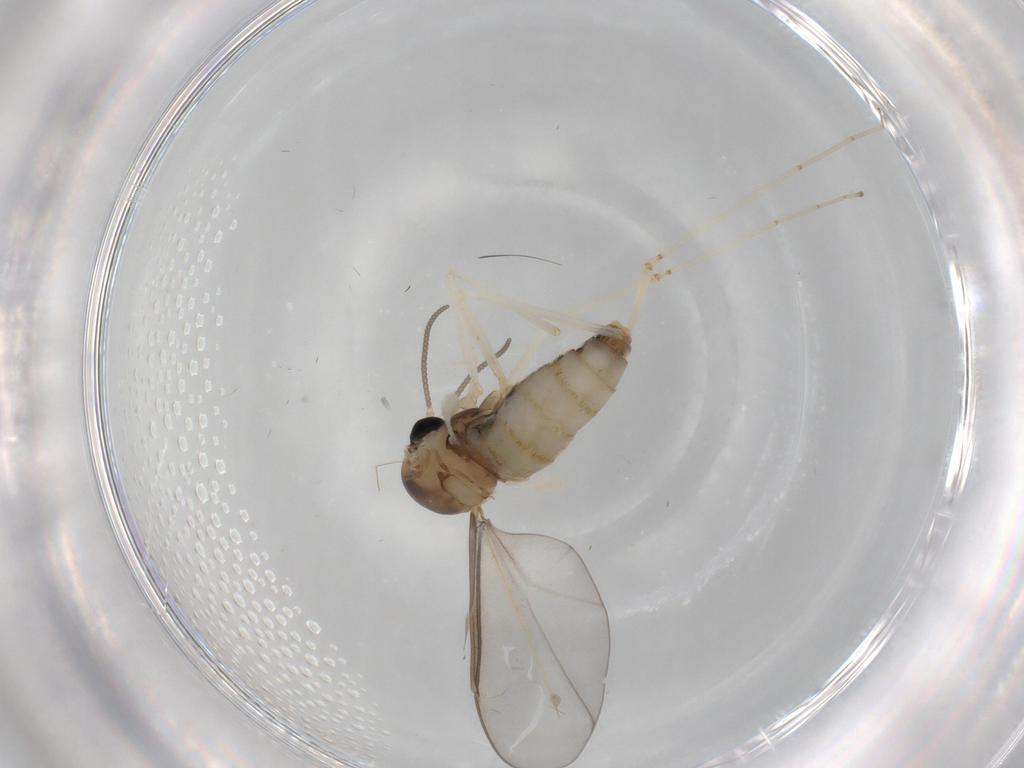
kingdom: Animalia
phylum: Arthropoda
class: Insecta
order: Diptera
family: Cecidomyiidae
